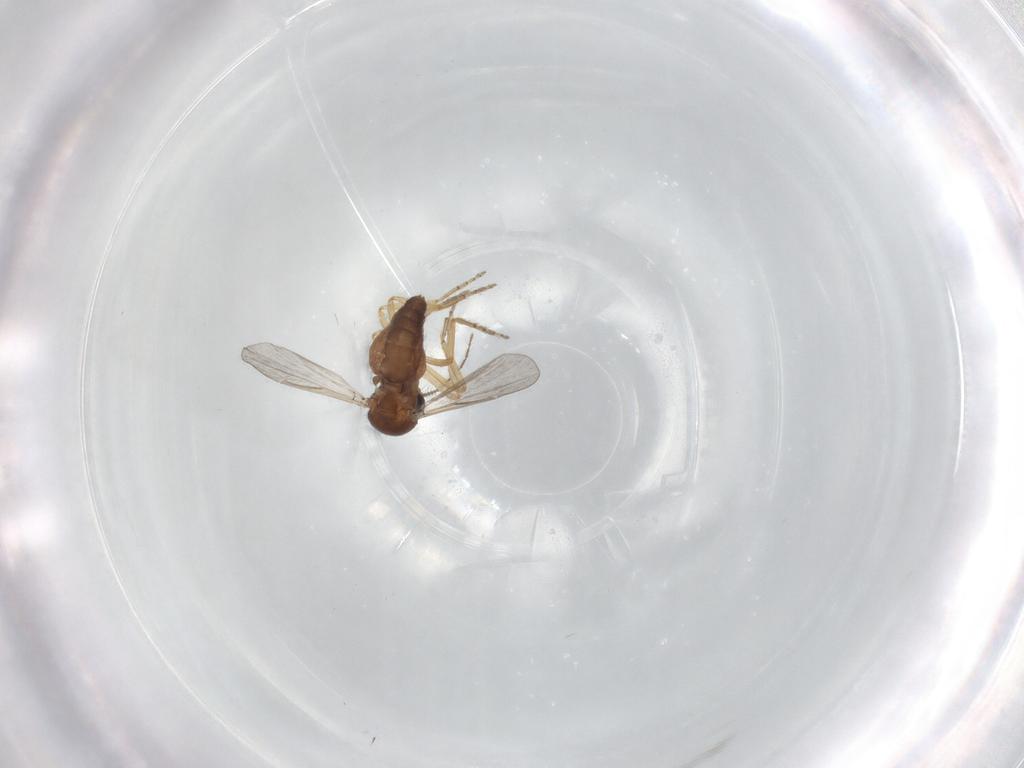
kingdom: Animalia
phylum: Arthropoda
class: Insecta
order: Diptera
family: Ceratopogonidae
